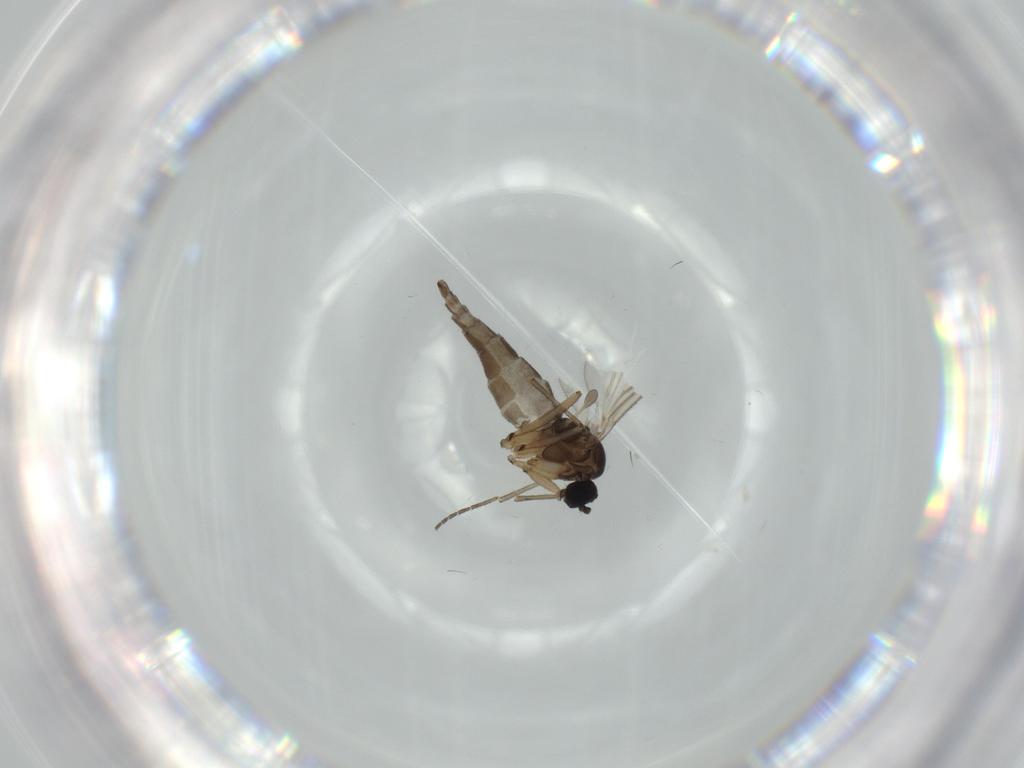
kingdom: Animalia
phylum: Arthropoda
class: Insecta
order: Diptera
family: Sciaridae
